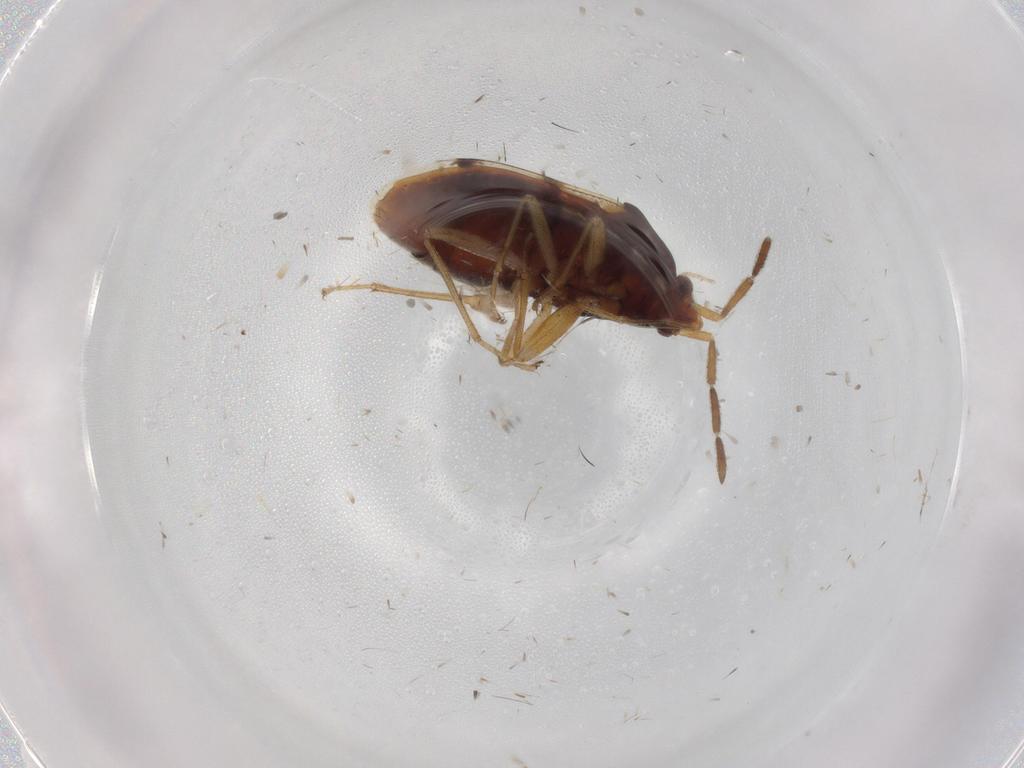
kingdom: Animalia
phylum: Arthropoda
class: Insecta
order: Hemiptera
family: Rhyparochromidae
